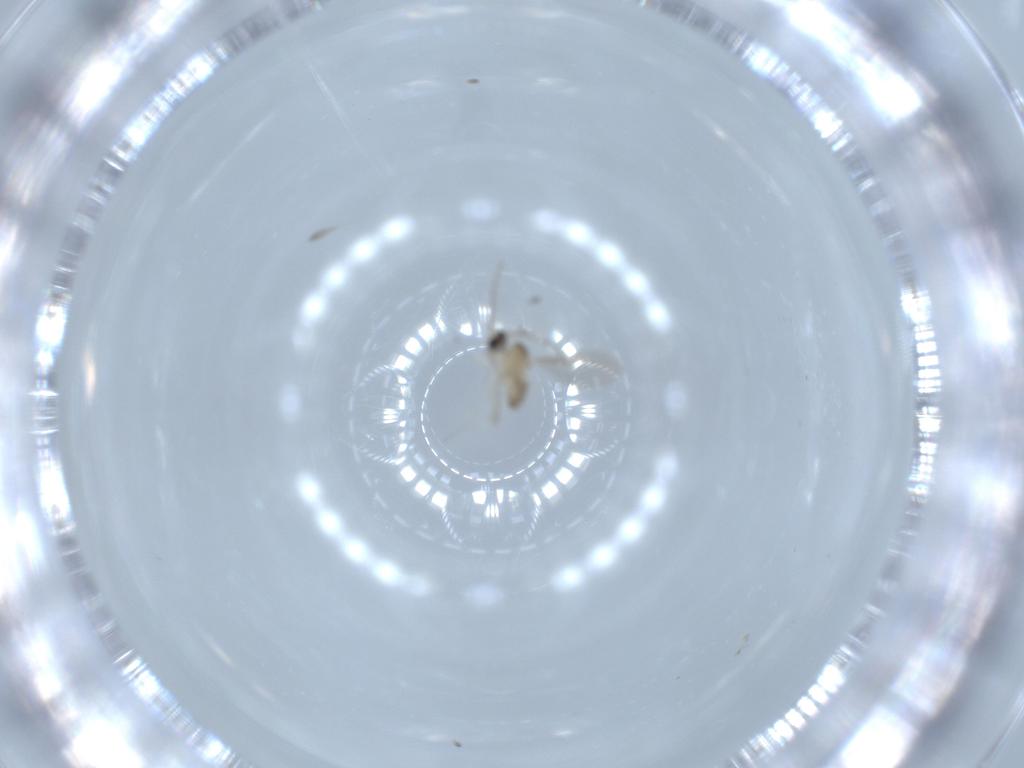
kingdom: Animalia
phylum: Arthropoda
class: Insecta
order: Diptera
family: Cecidomyiidae
